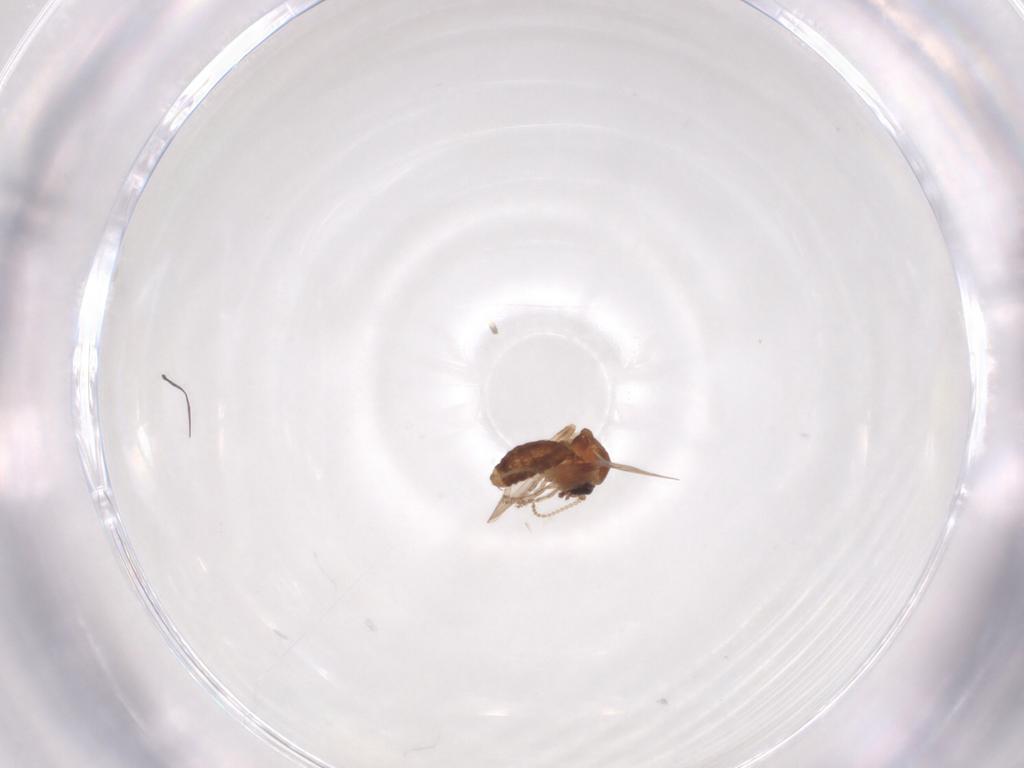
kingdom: Animalia
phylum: Arthropoda
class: Insecta
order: Diptera
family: Ceratopogonidae
